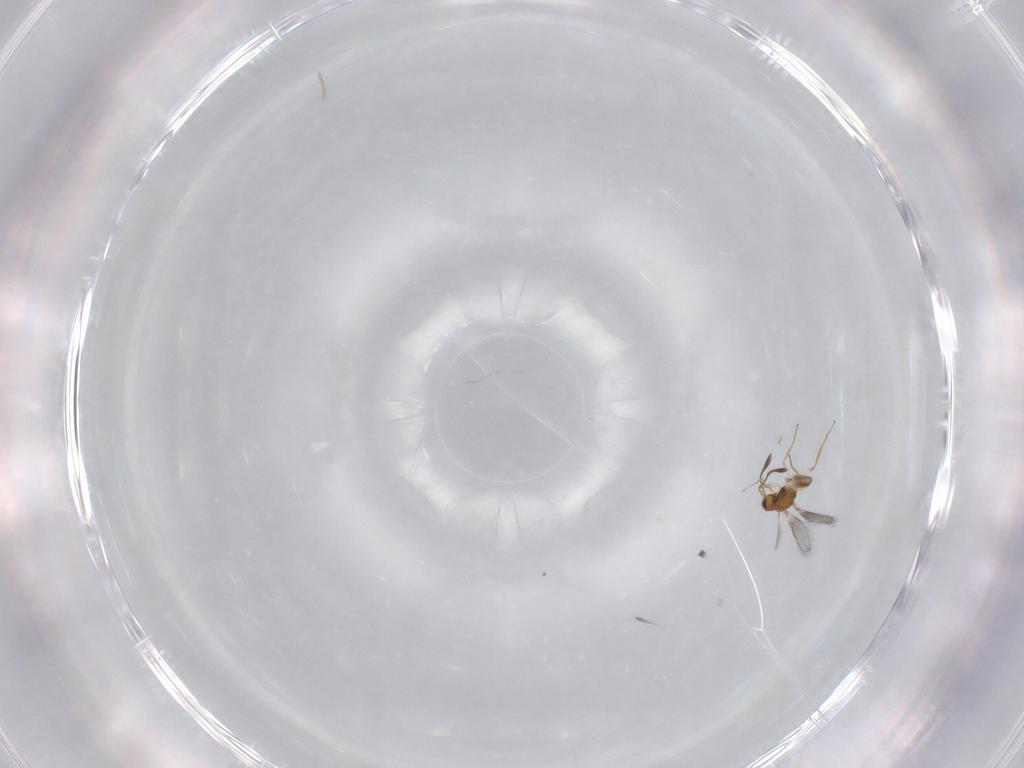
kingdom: Animalia
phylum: Arthropoda
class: Insecta
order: Hymenoptera
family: Mymaridae
